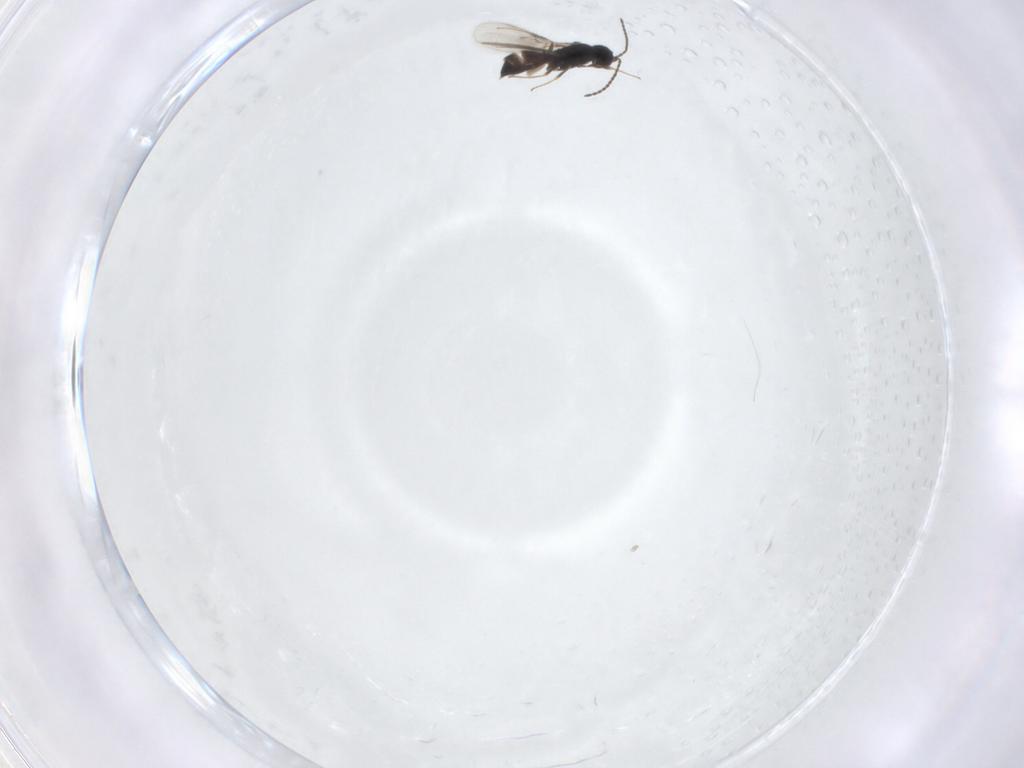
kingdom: Animalia
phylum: Arthropoda
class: Insecta
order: Hymenoptera
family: Scelionidae
